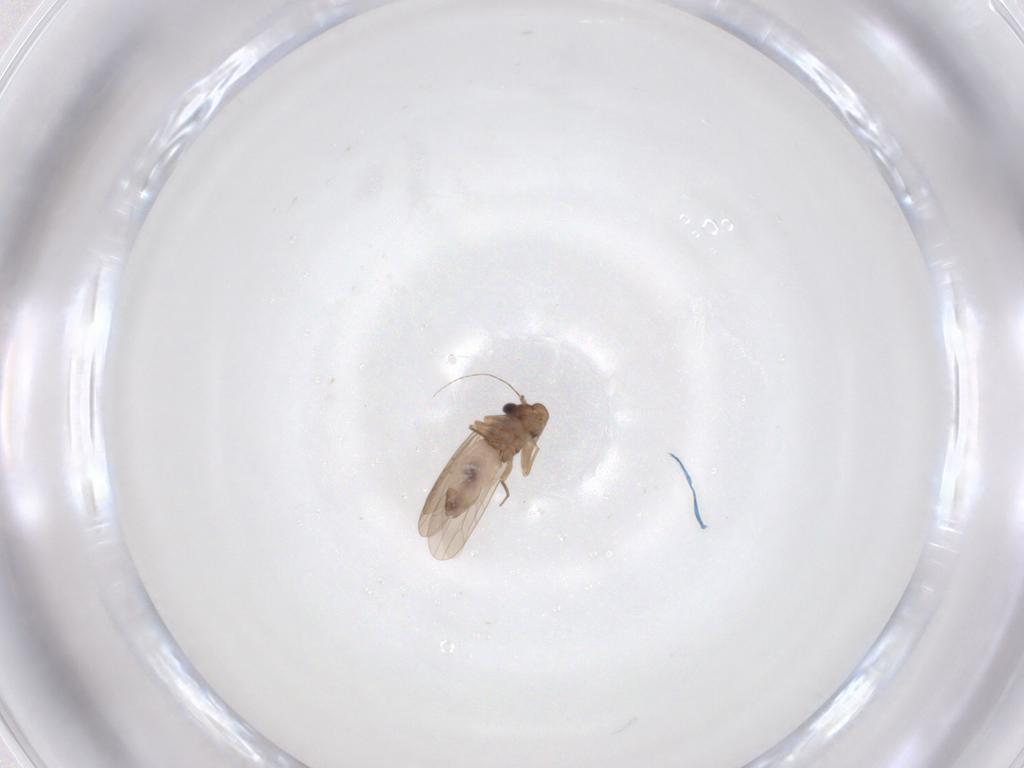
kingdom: Animalia
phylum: Arthropoda
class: Insecta
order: Psocodea
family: Lepidopsocidae
